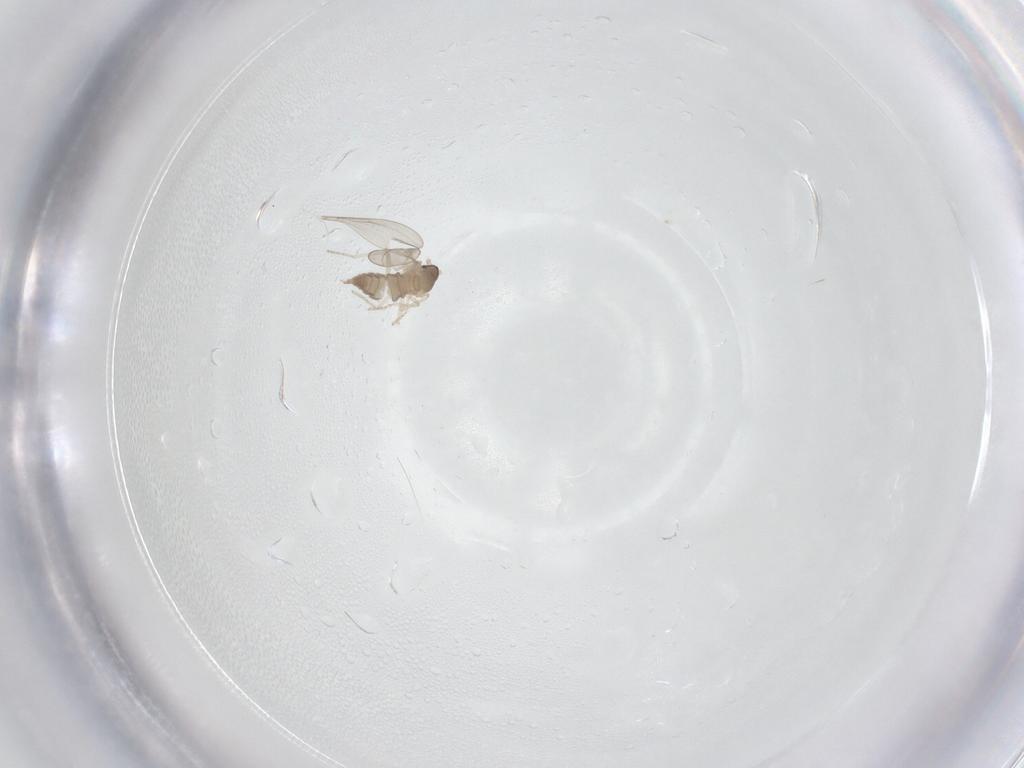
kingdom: Animalia
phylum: Arthropoda
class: Insecta
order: Diptera
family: Cecidomyiidae
